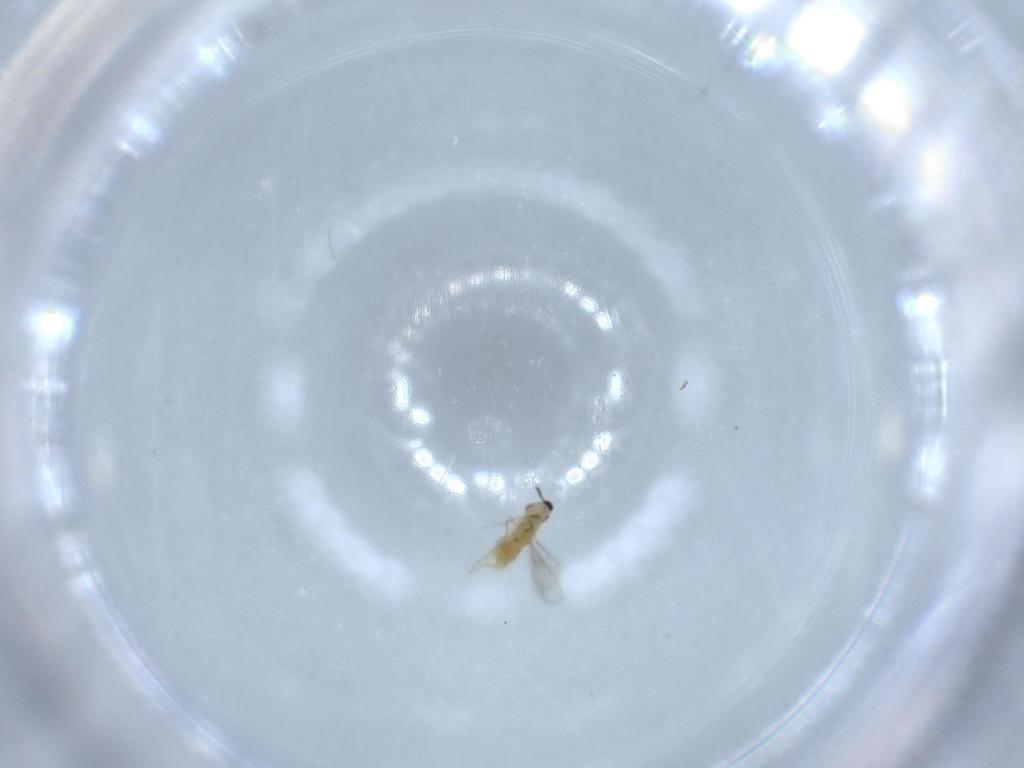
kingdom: Animalia
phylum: Arthropoda
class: Insecta
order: Hymenoptera
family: Aphelinidae
